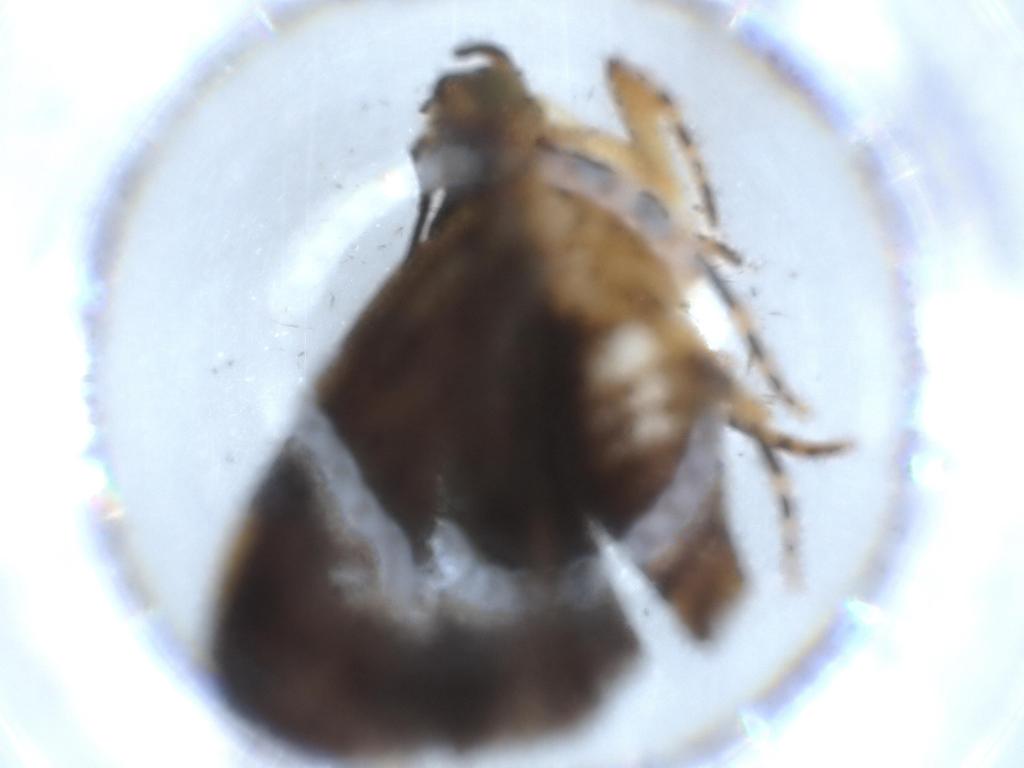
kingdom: Animalia
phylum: Arthropoda
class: Insecta
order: Lepidoptera
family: Immidae
